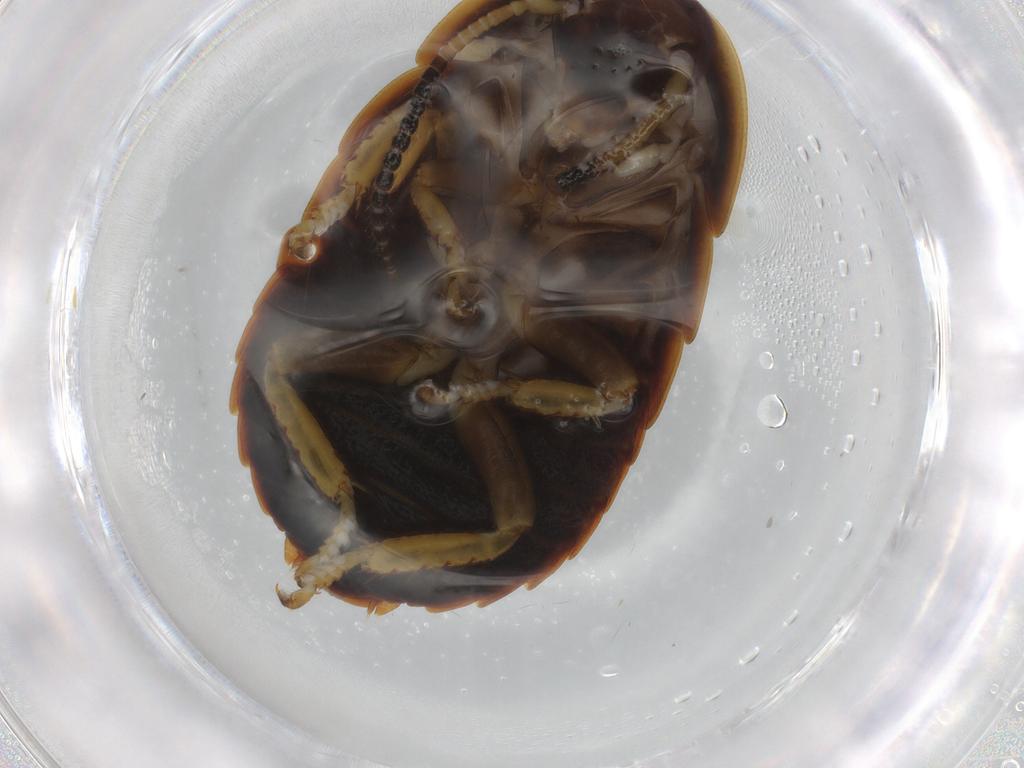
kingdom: Animalia
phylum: Arthropoda
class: Insecta
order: Blattodea
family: Blaberidae
